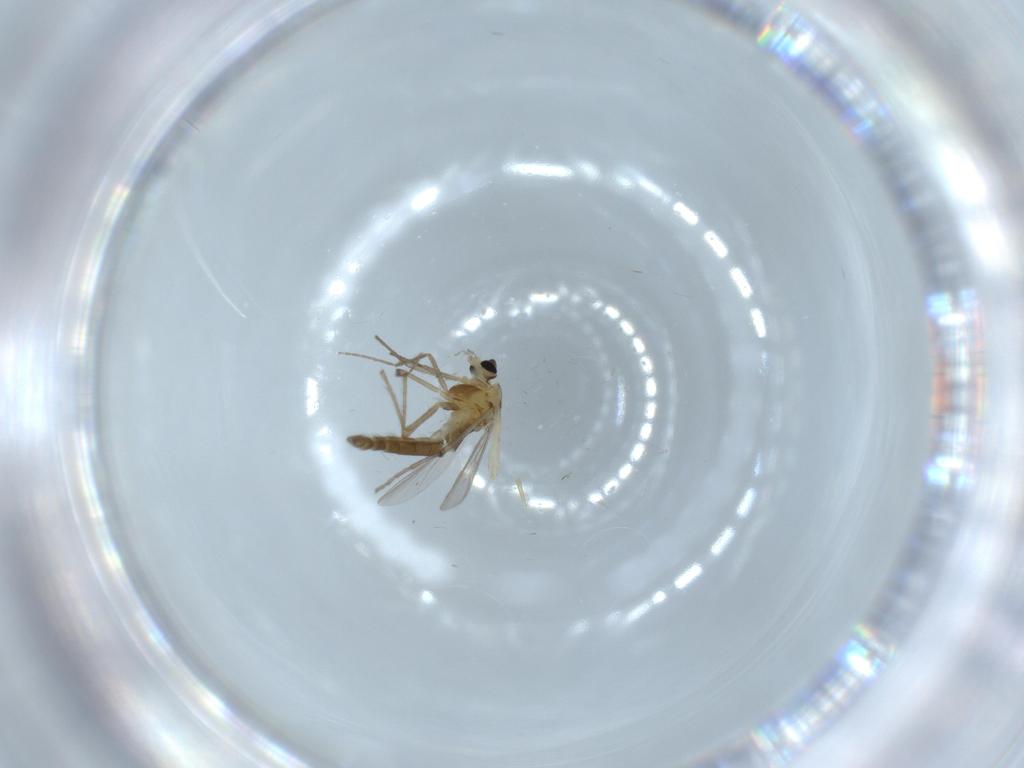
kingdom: Animalia
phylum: Arthropoda
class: Insecta
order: Diptera
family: Chironomidae
